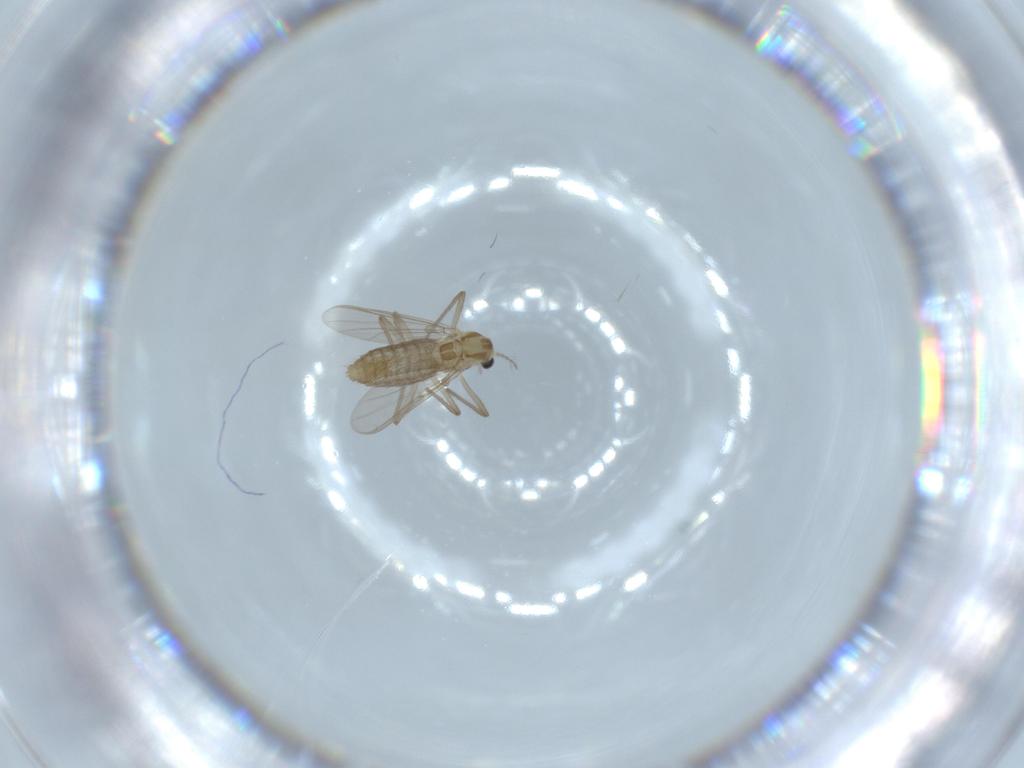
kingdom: Animalia
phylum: Arthropoda
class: Insecta
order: Diptera
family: Chironomidae
